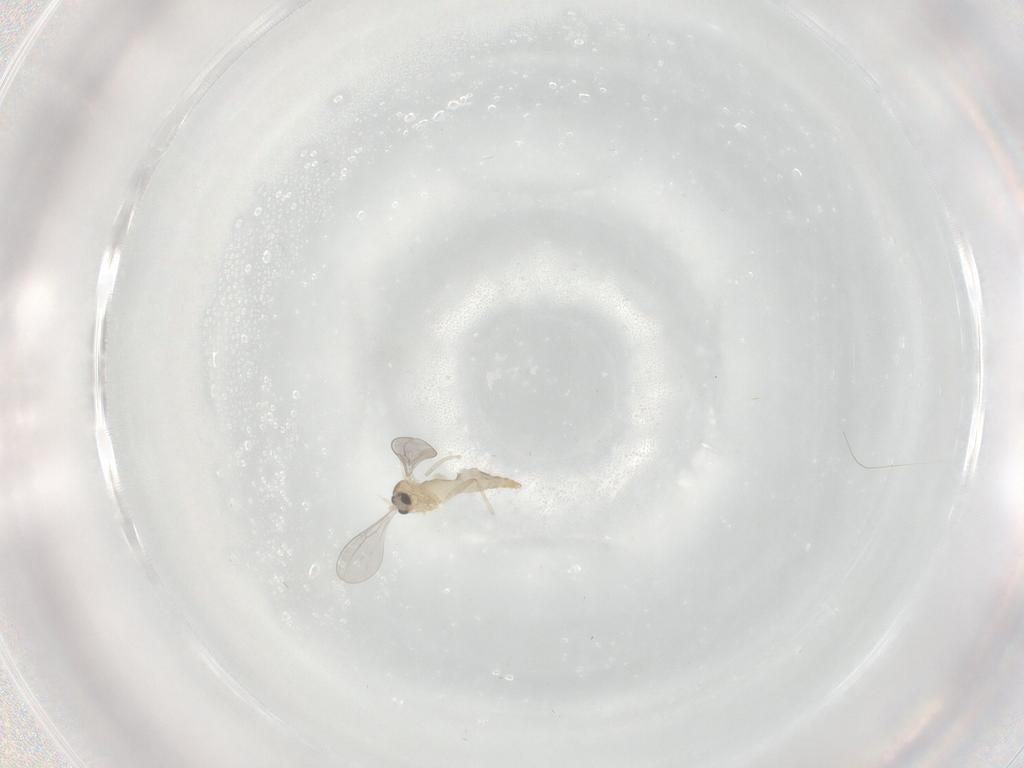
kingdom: Animalia
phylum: Arthropoda
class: Insecta
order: Diptera
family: Cecidomyiidae
